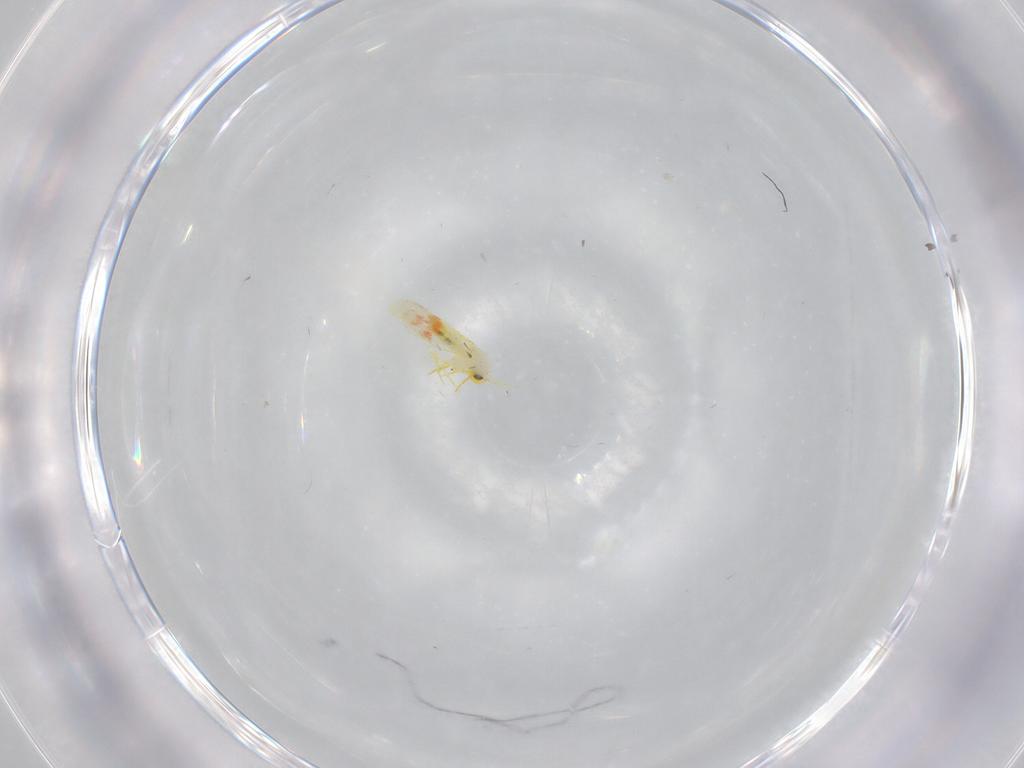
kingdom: Animalia
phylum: Arthropoda
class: Insecta
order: Hemiptera
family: Aleyrodidae
